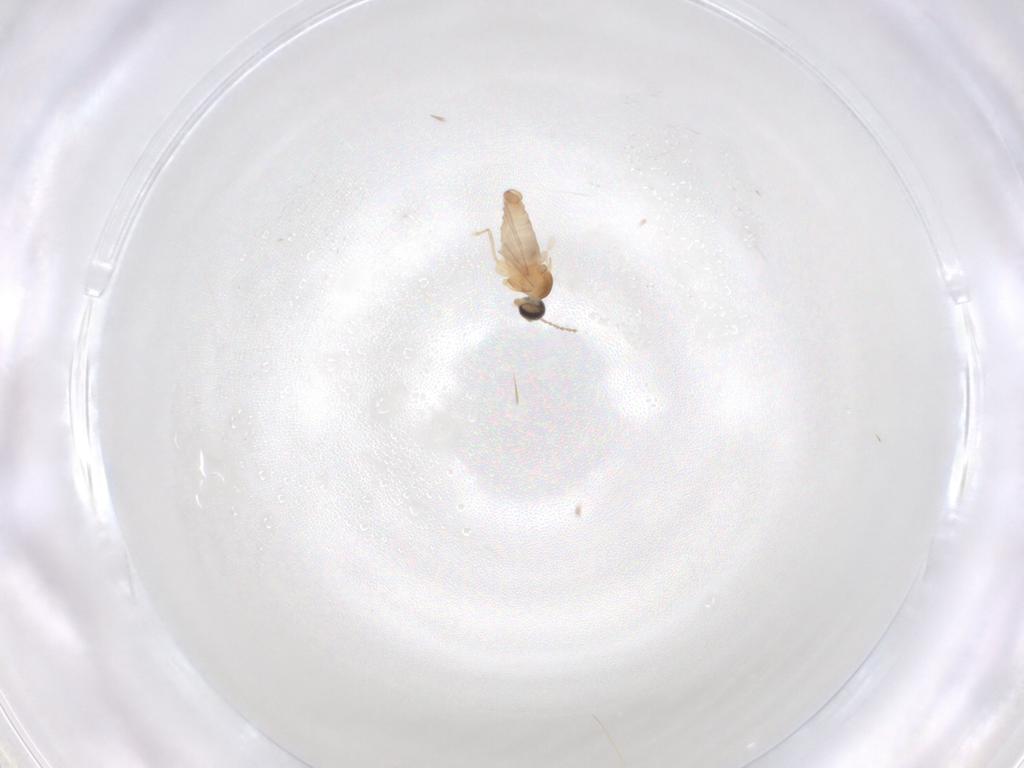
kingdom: Animalia
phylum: Arthropoda
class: Insecta
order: Diptera
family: Cecidomyiidae
